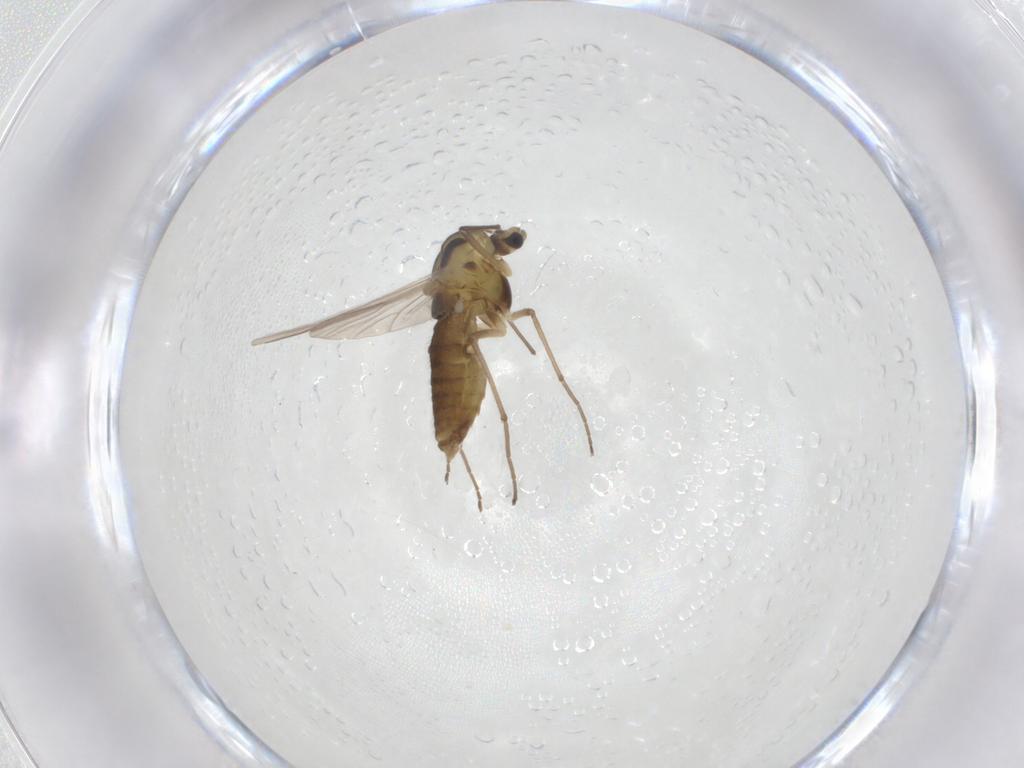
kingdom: Animalia
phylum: Arthropoda
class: Insecta
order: Diptera
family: Chironomidae
